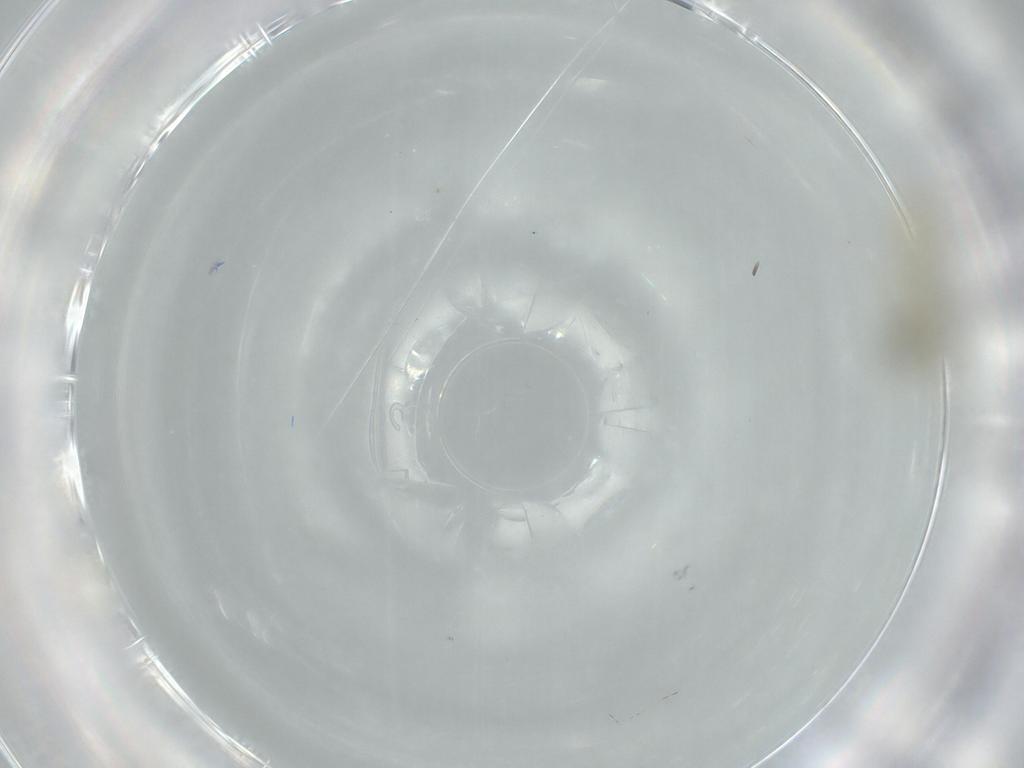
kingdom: Animalia
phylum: Arthropoda
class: Insecta
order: Diptera
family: Chironomidae
